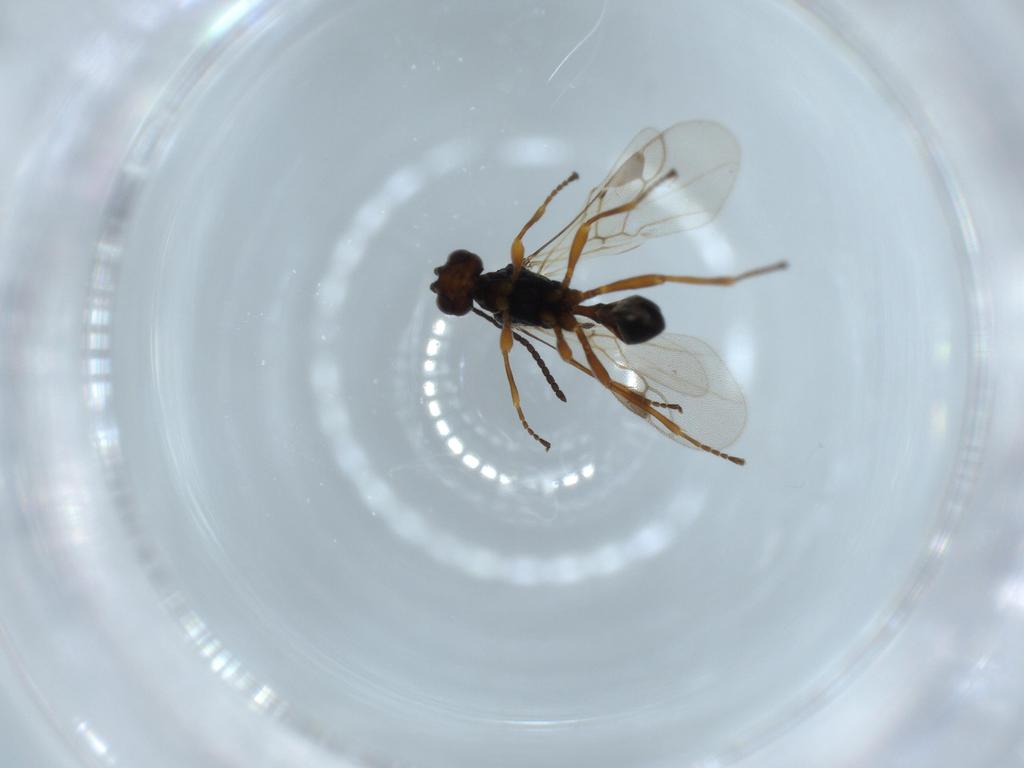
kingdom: Animalia
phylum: Arthropoda
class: Insecta
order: Hymenoptera
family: Braconidae
